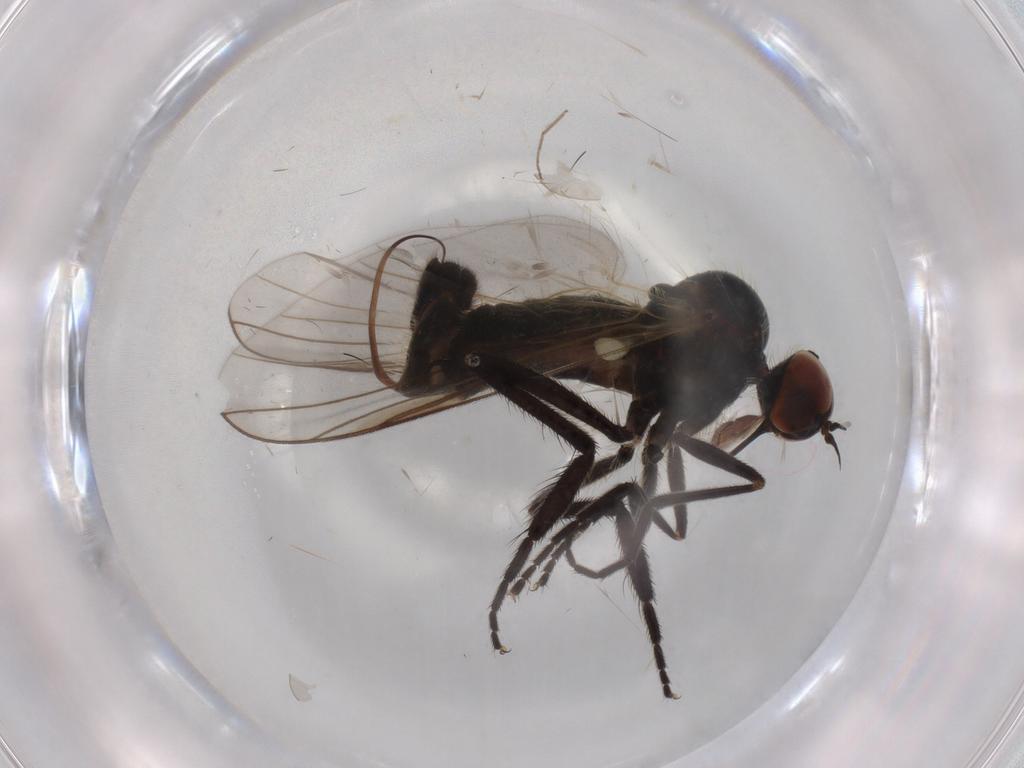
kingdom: Animalia
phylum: Arthropoda
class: Insecta
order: Diptera
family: Empididae
